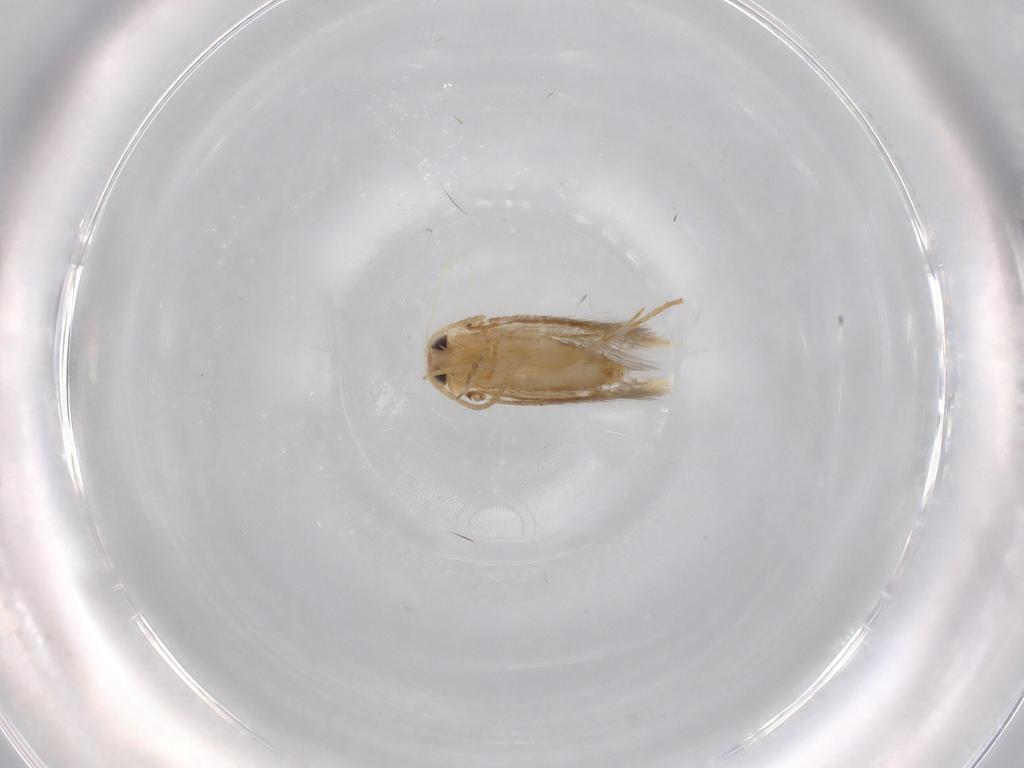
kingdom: Animalia
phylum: Arthropoda
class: Insecta
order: Lepidoptera
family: Nepticulidae
